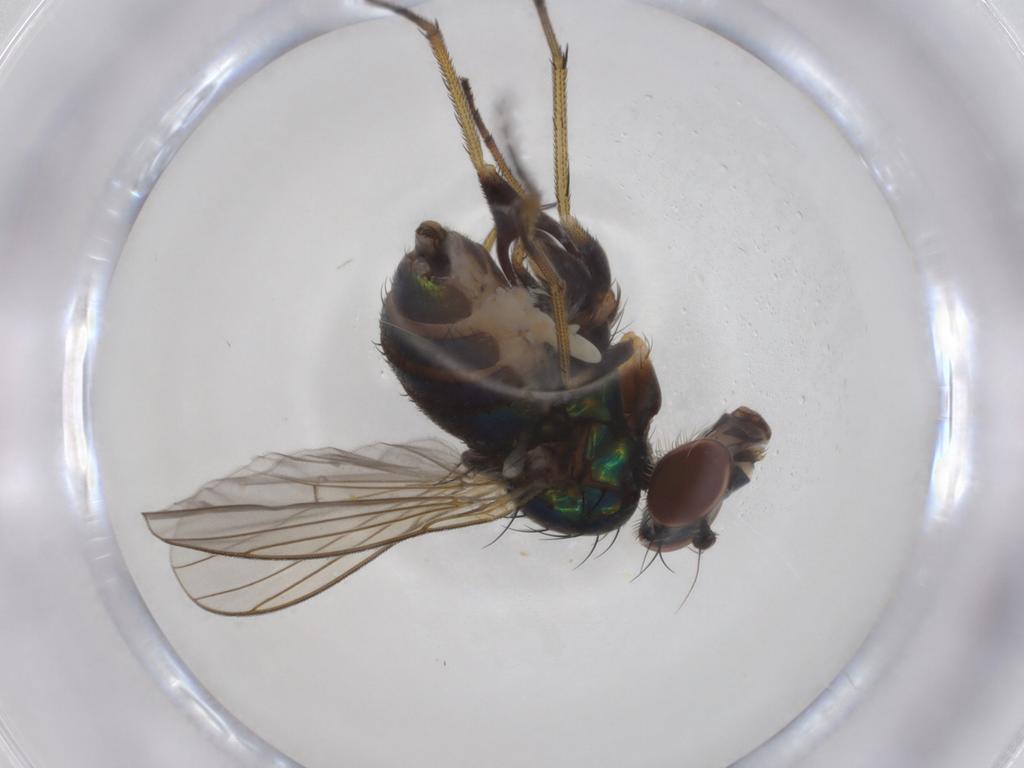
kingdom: Animalia
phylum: Arthropoda
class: Insecta
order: Diptera
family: Dolichopodidae
